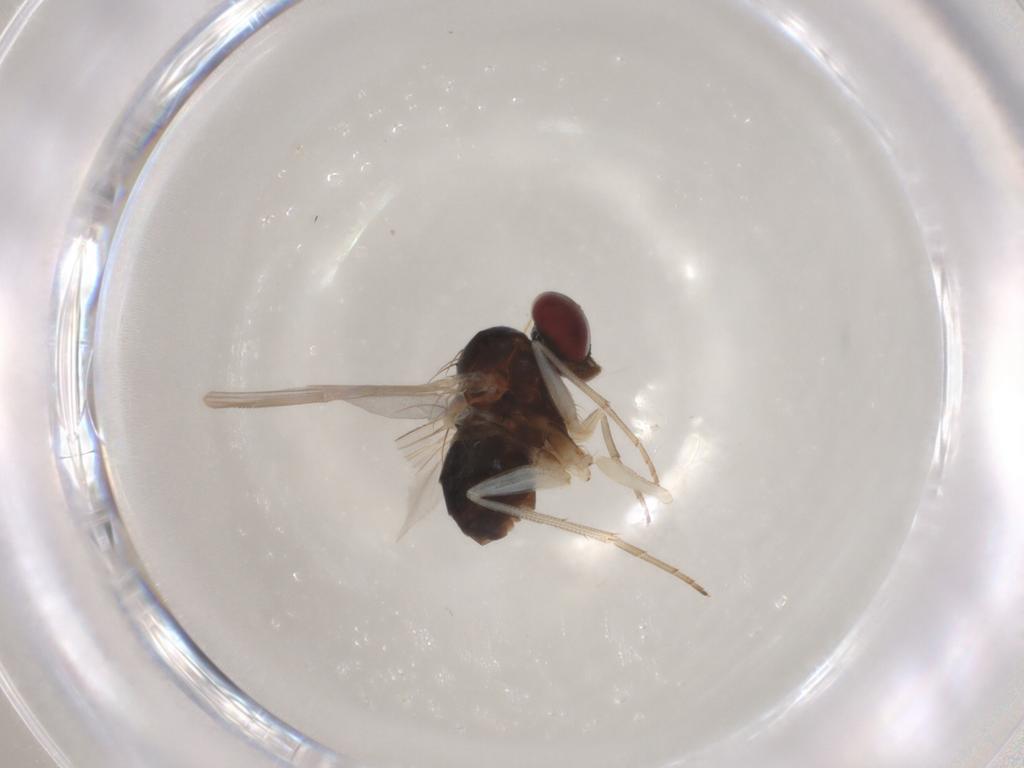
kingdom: Animalia
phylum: Arthropoda
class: Insecta
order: Diptera
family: Dolichopodidae
